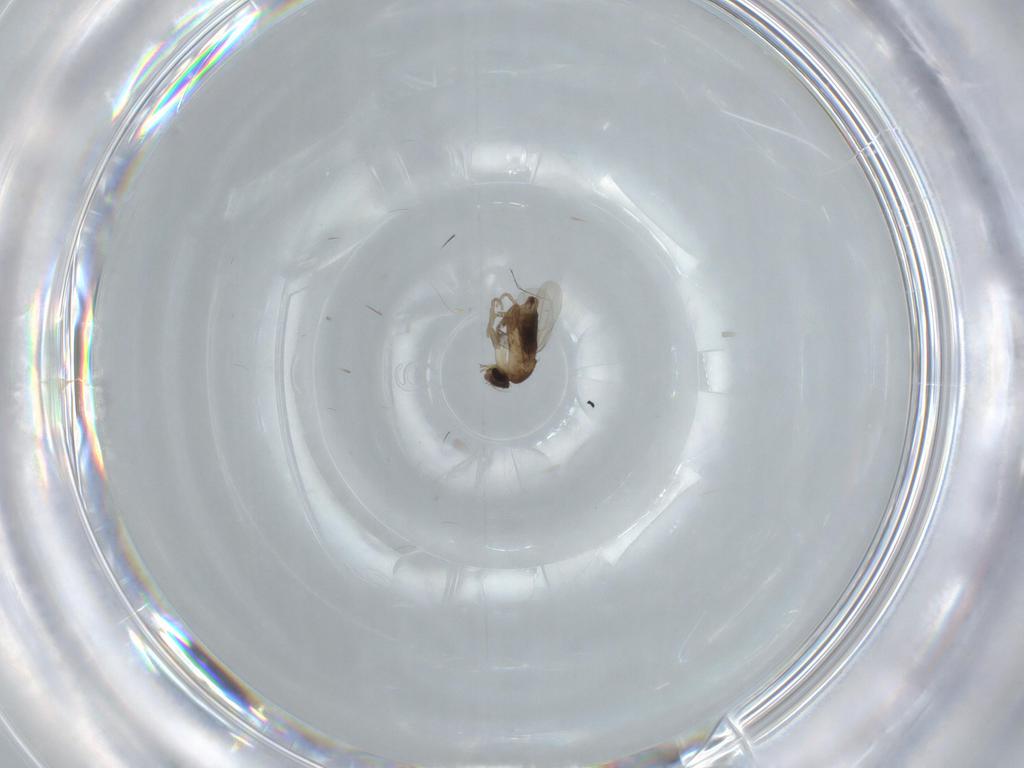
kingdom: Animalia
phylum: Arthropoda
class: Insecta
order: Diptera
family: Phoridae
